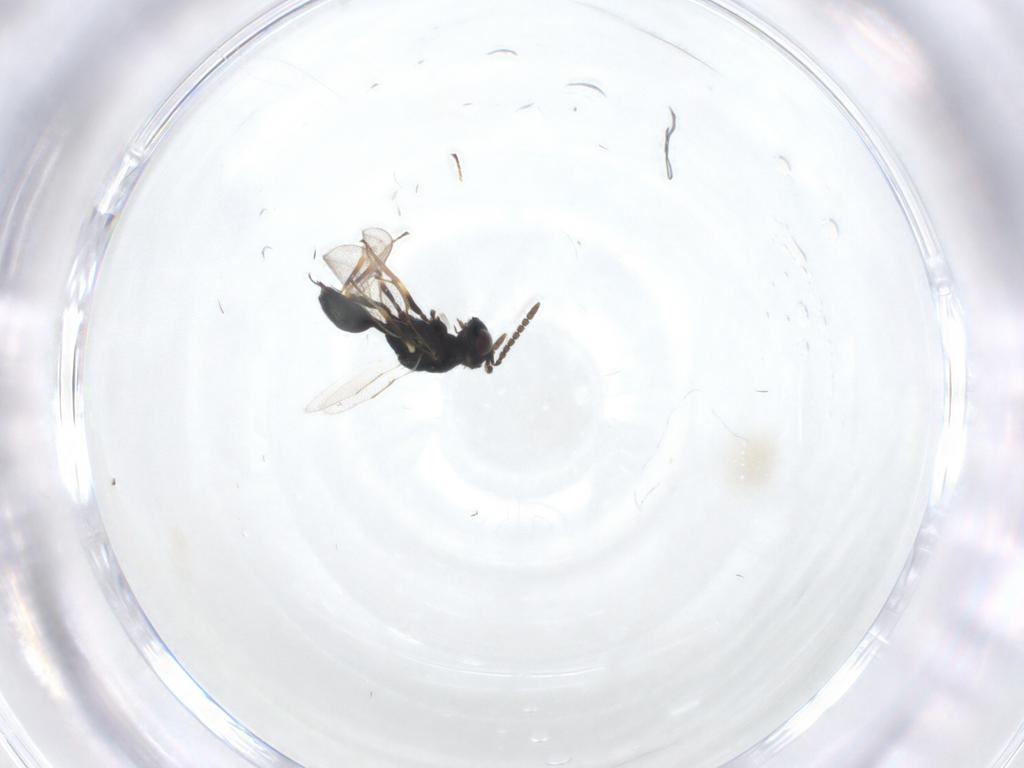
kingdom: Animalia
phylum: Arthropoda
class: Insecta
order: Hymenoptera
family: Pteromalidae
